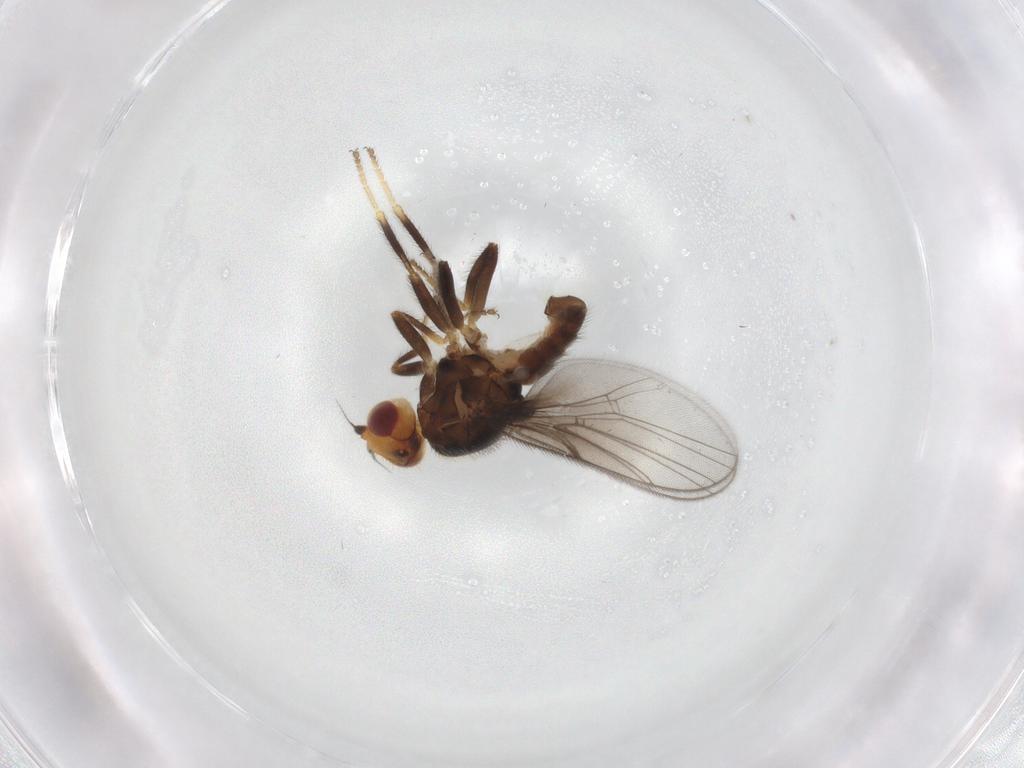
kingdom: Animalia
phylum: Arthropoda
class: Insecta
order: Diptera
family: Chloropidae
